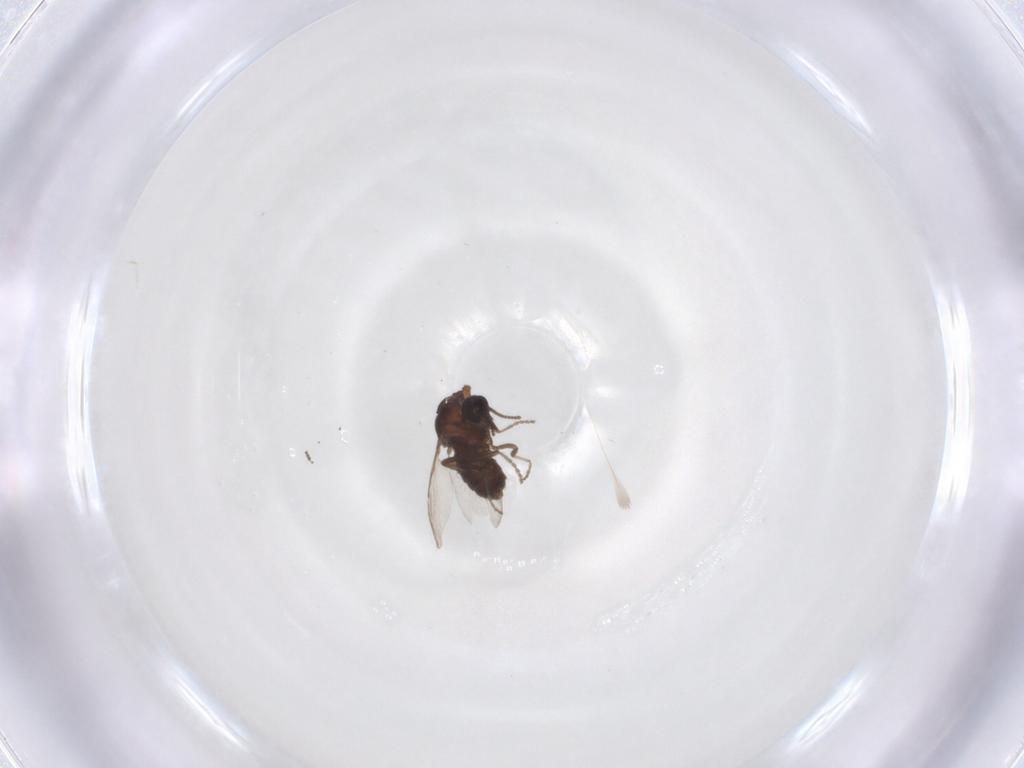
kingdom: Animalia
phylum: Arthropoda
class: Insecta
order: Diptera
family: Ceratopogonidae
